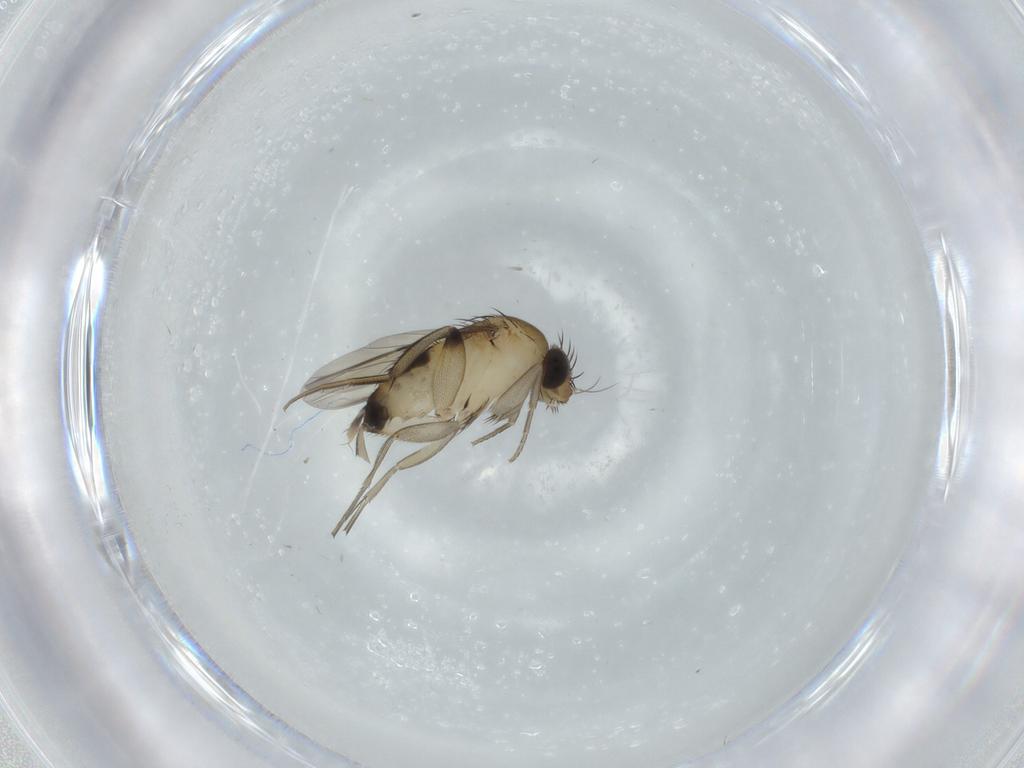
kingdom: Animalia
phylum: Arthropoda
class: Insecta
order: Diptera
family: Phoridae
